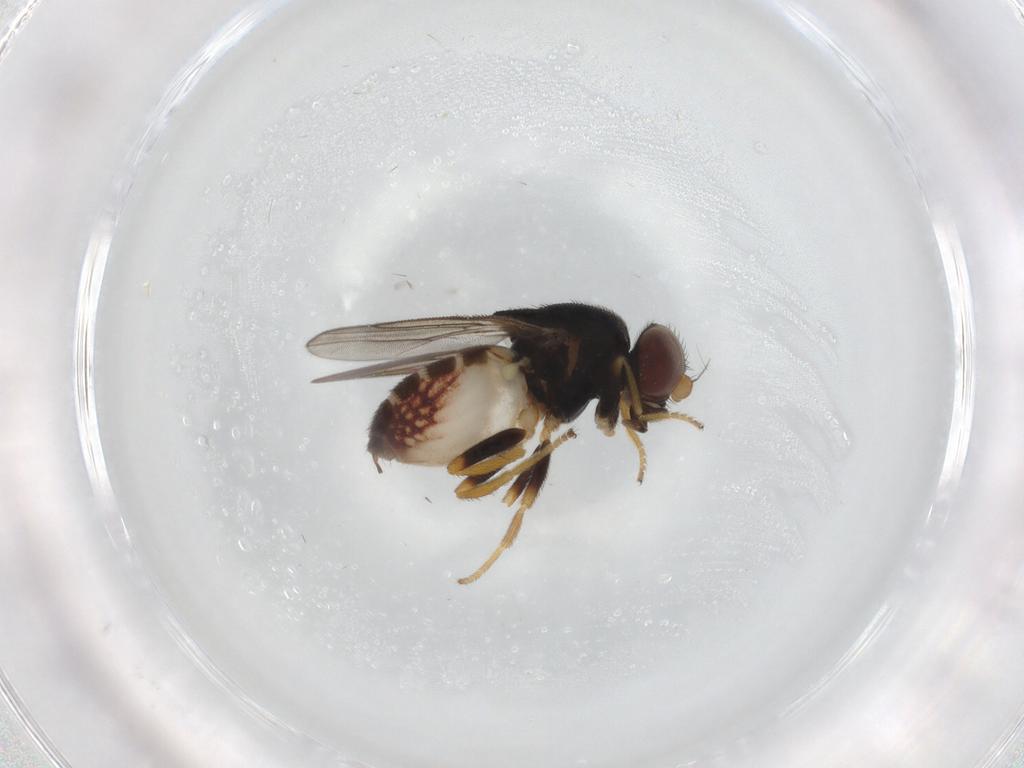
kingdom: Animalia
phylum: Arthropoda
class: Insecta
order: Diptera
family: Chloropidae
